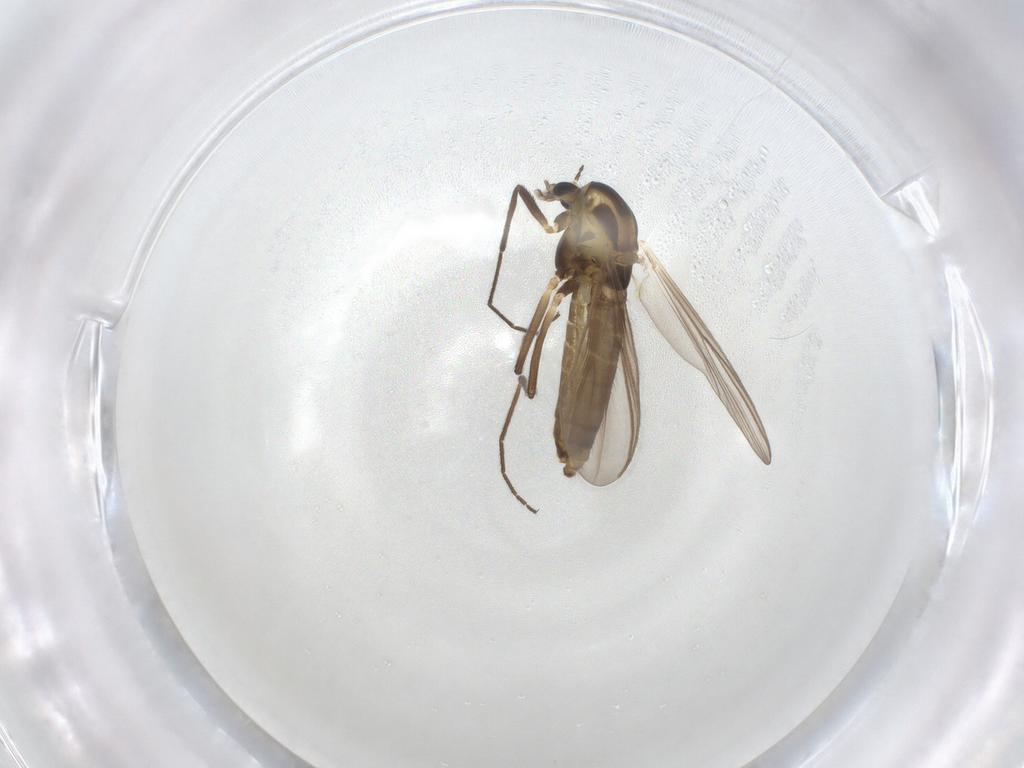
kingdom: Animalia
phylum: Arthropoda
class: Insecta
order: Diptera
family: Chironomidae
